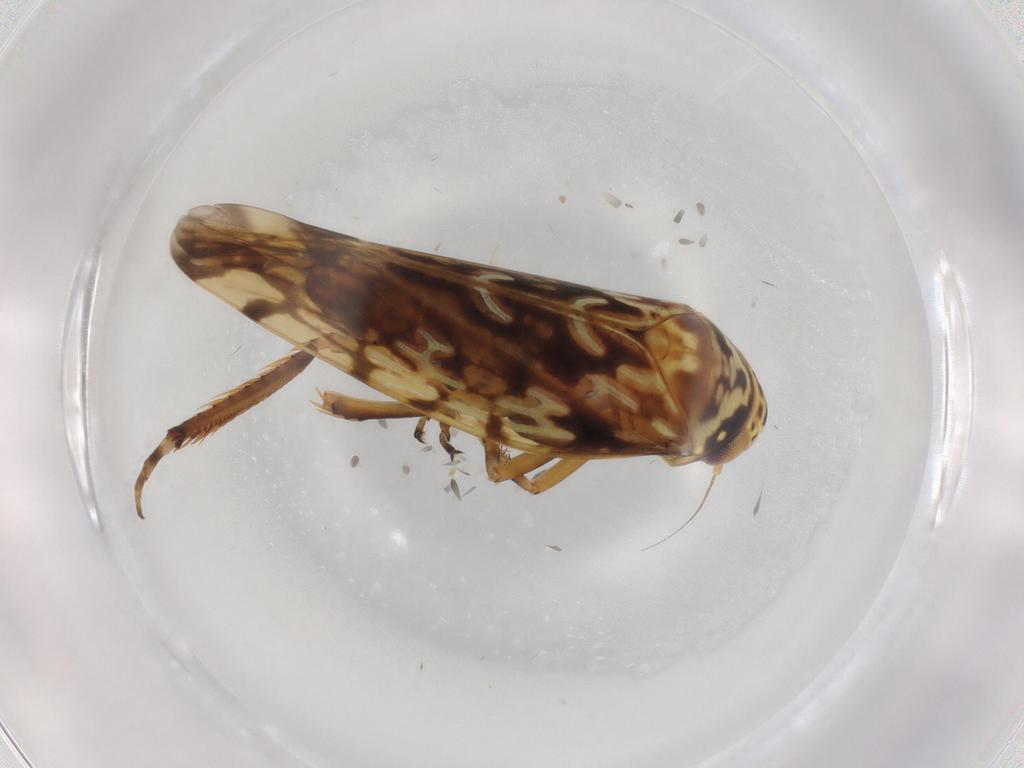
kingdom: Animalia
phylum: Arthropoda
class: Insecta
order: Hemiptera
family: Cicadellidae
